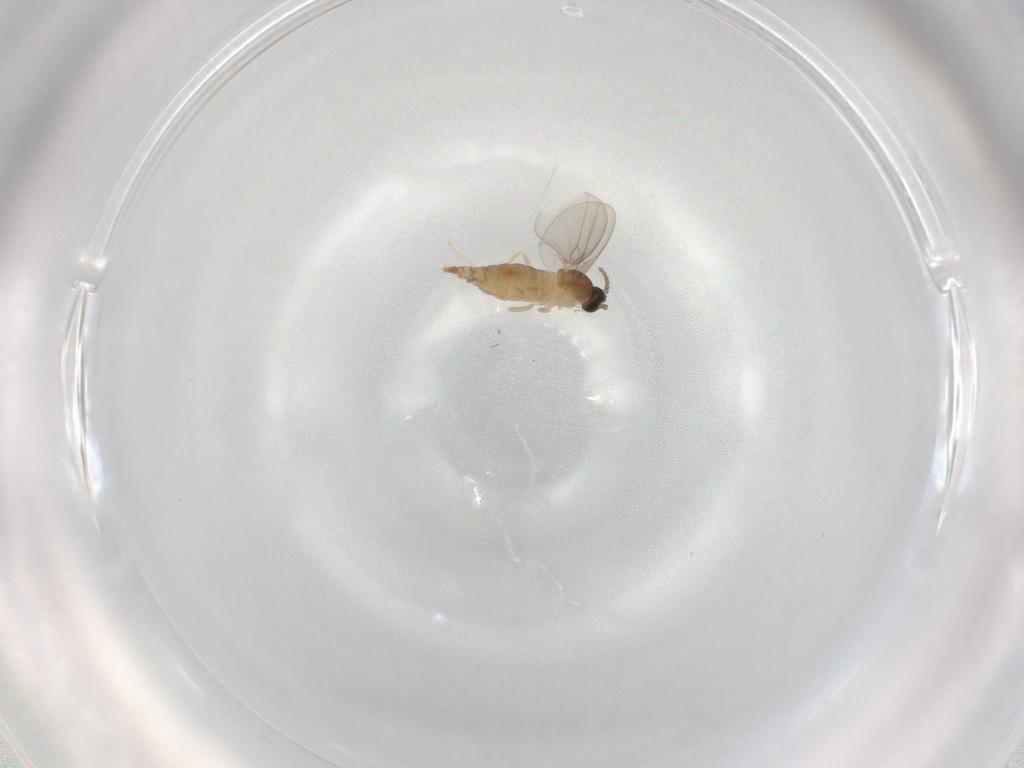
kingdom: Animalia
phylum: Arthropoda
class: Insecta
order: Diptera
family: Cecidomyiidae
